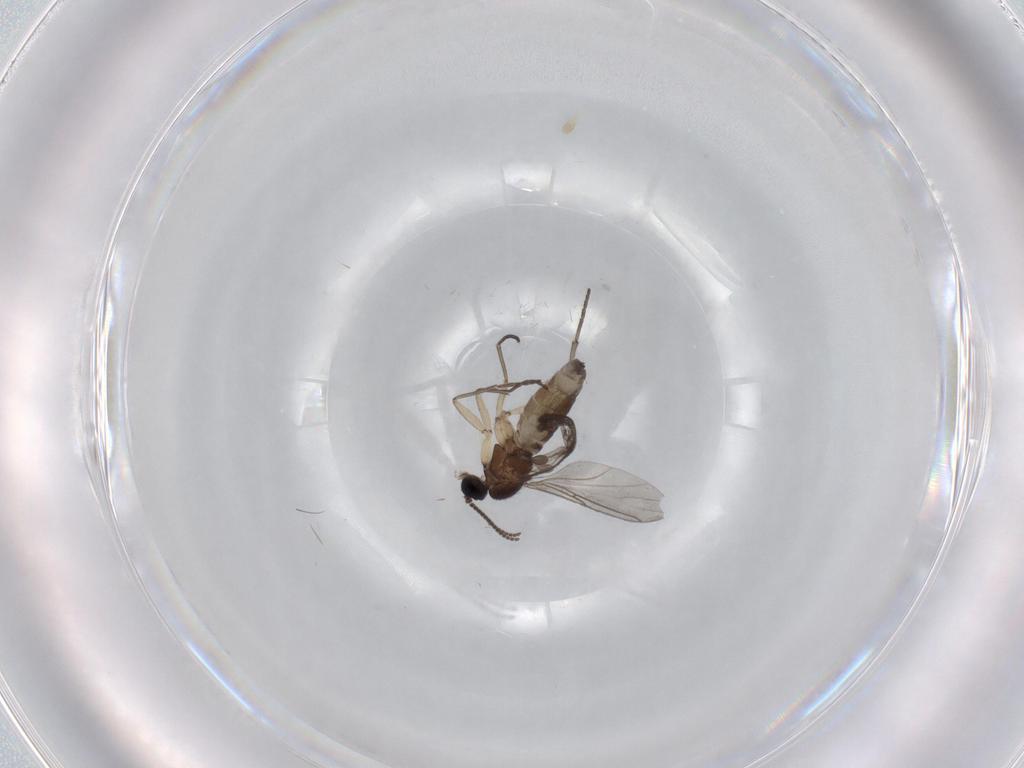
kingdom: Animalia
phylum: Arthropoda
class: Insecta
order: Diptera
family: Sciaridae
